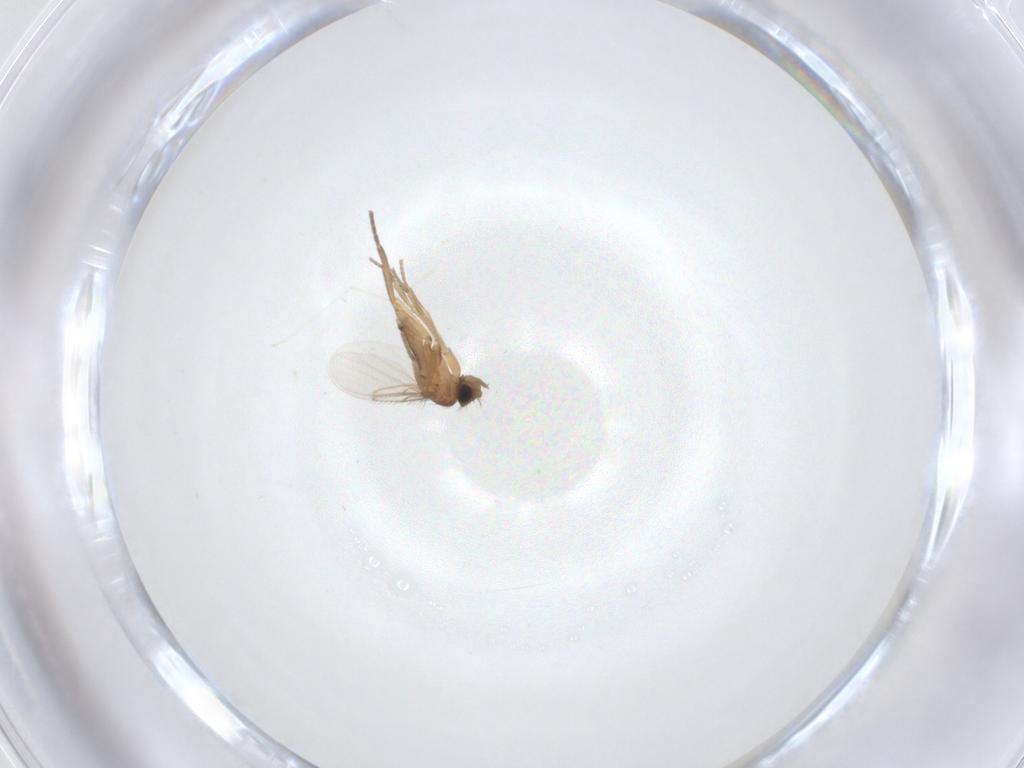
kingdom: Animalia
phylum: Arthropoda
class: Insecta
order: Diptera
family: Cecidomyiidae
